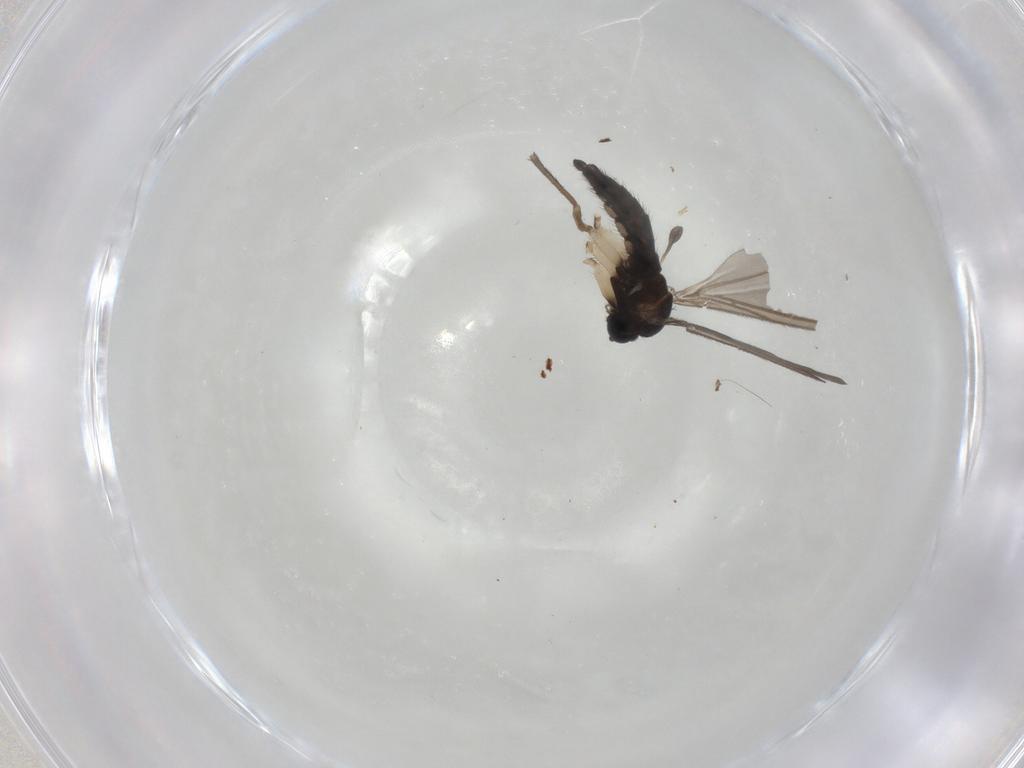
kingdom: Animalia
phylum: Arthropoda
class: Insecta
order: Diptera
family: Sciaridae
